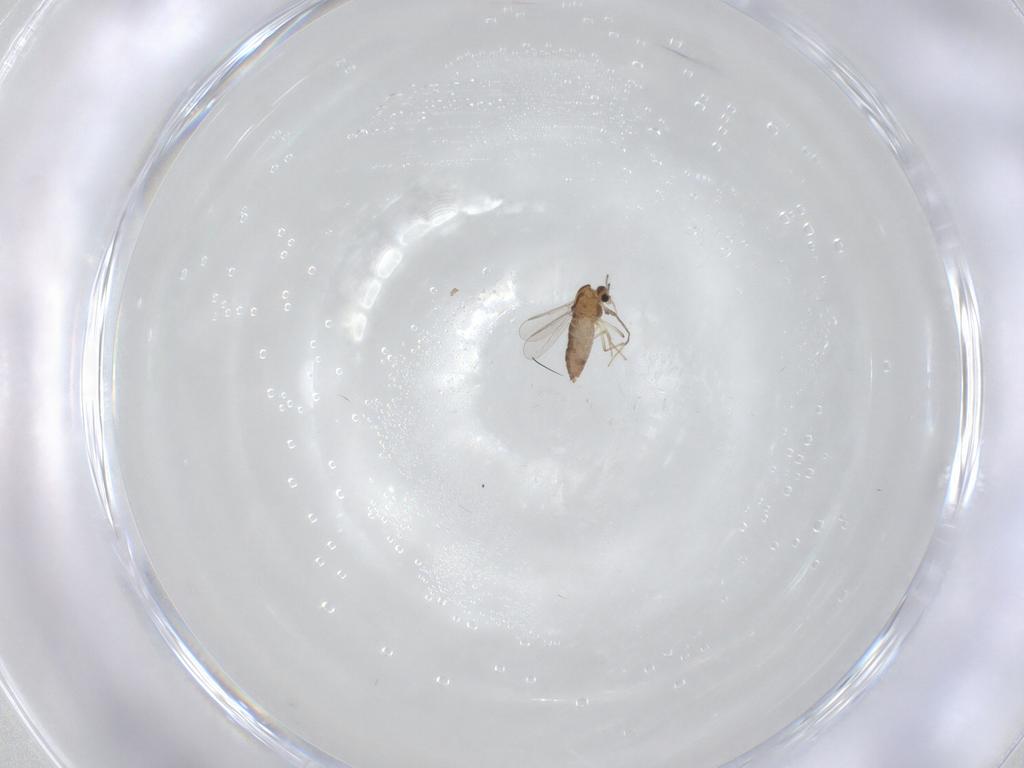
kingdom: Animalia
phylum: Arthropoda
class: Insecta
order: Diptera
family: Chironomidae
